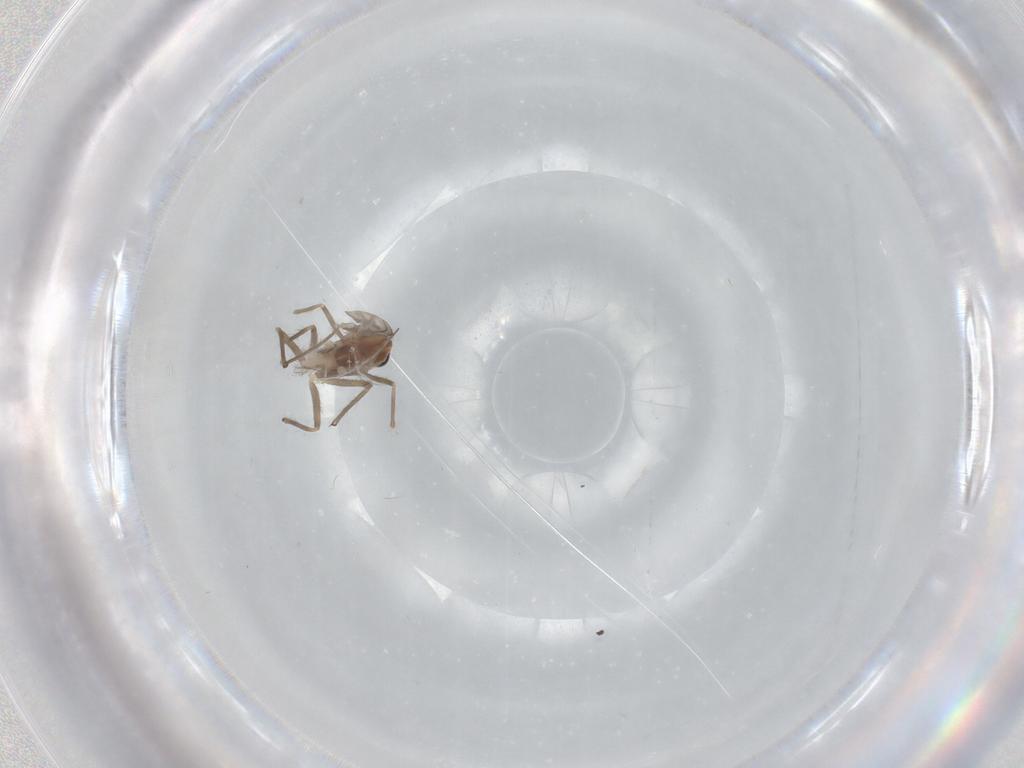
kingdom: Animalia
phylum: Arthropoda
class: Insecta
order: Diptera
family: Chironomidae
